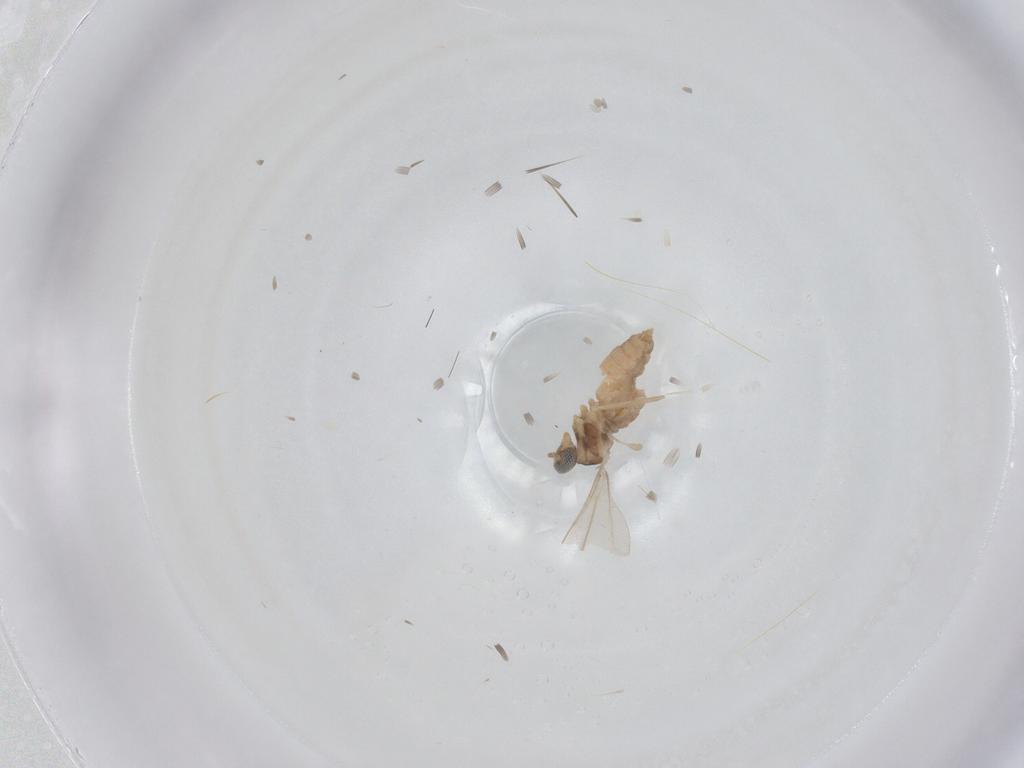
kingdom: Animalia
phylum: Arthropoda
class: Insecta
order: Diptera
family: Cecidomyiidae
